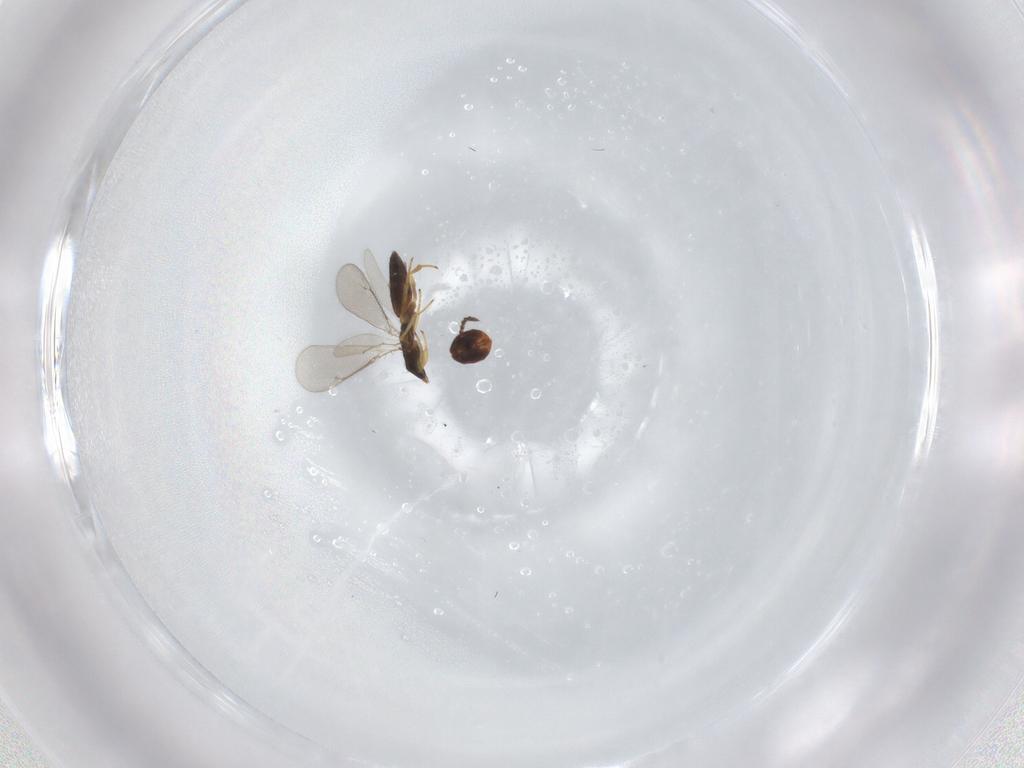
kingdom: Animalia
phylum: Arthropoda
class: Insecta
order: Hymenoptera
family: Eulophidae
